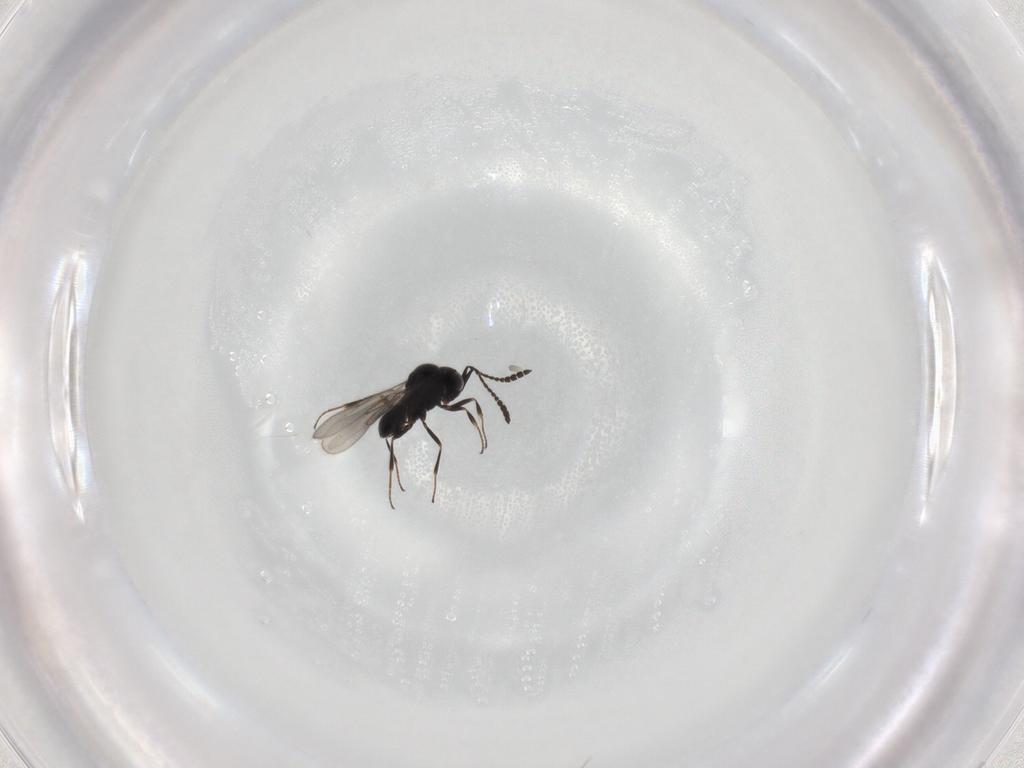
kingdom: Animalia
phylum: Arthropoda
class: Insecta
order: Hymenoptera
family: Scelionidae
